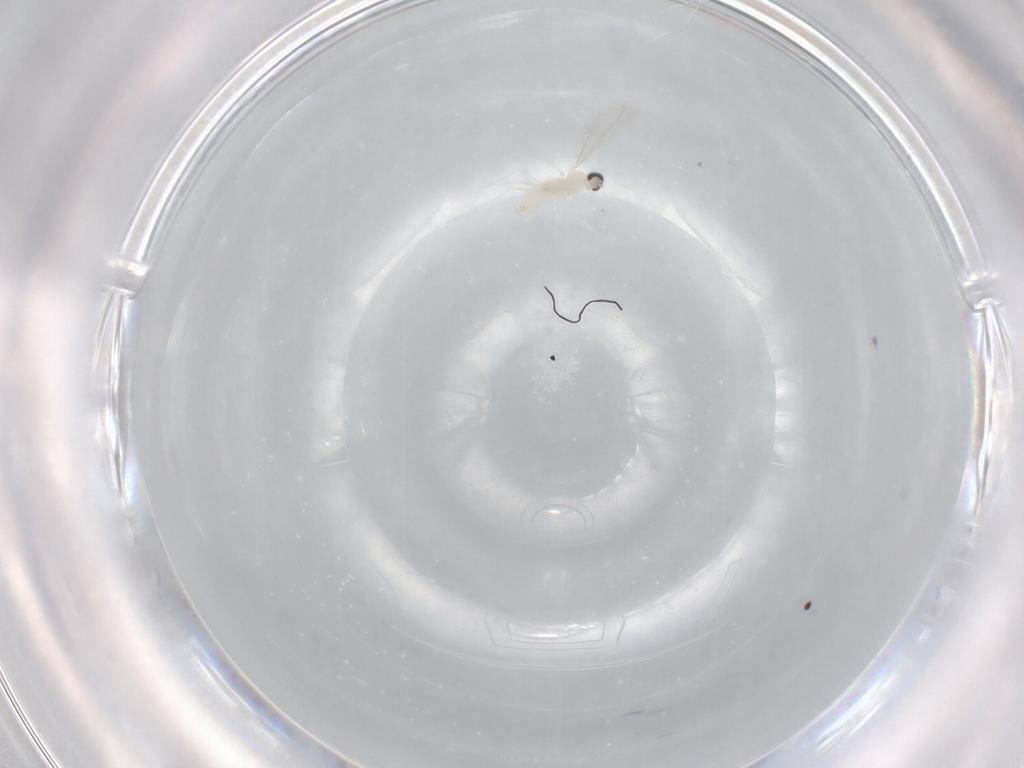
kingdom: Animalia
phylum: Arthropoda
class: Insecta
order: Diptera
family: Cecidomyiidae
